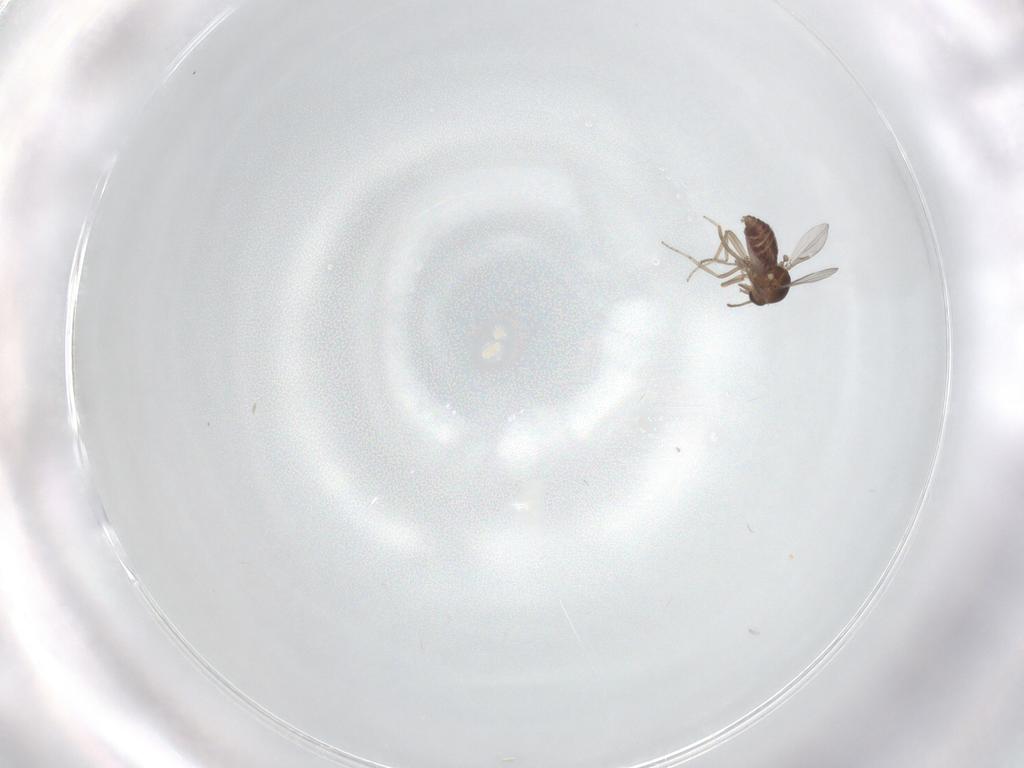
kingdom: Animalia
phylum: Arthropoda
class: Insecta
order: Diptera
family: Ceratopogonidae
